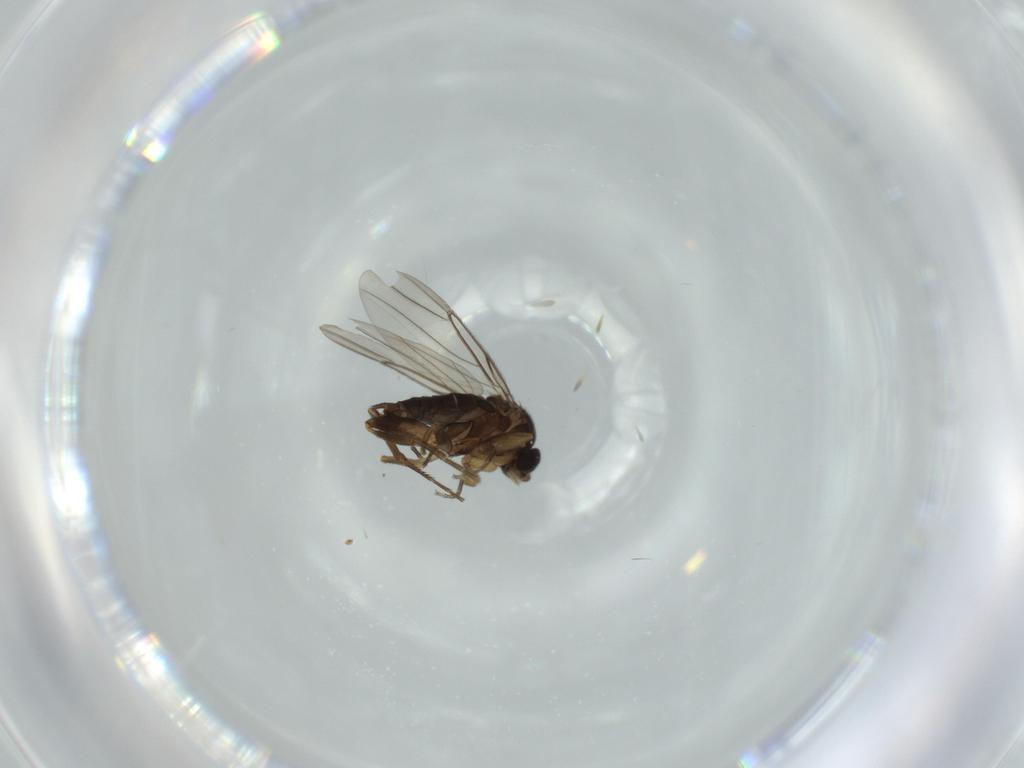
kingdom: Animalia
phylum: Arthropoda
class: Insecta
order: Diptera
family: Phoridae
